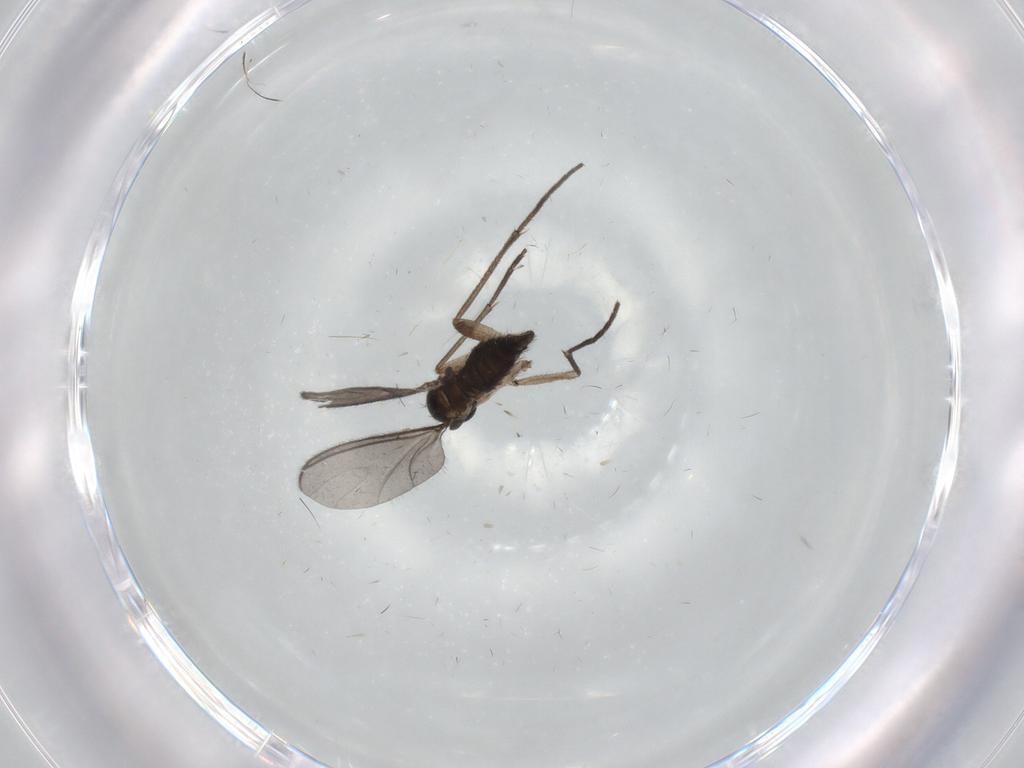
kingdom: Animalia
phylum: Arthropoda
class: Insecta
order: Diptera
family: Sciaridae
